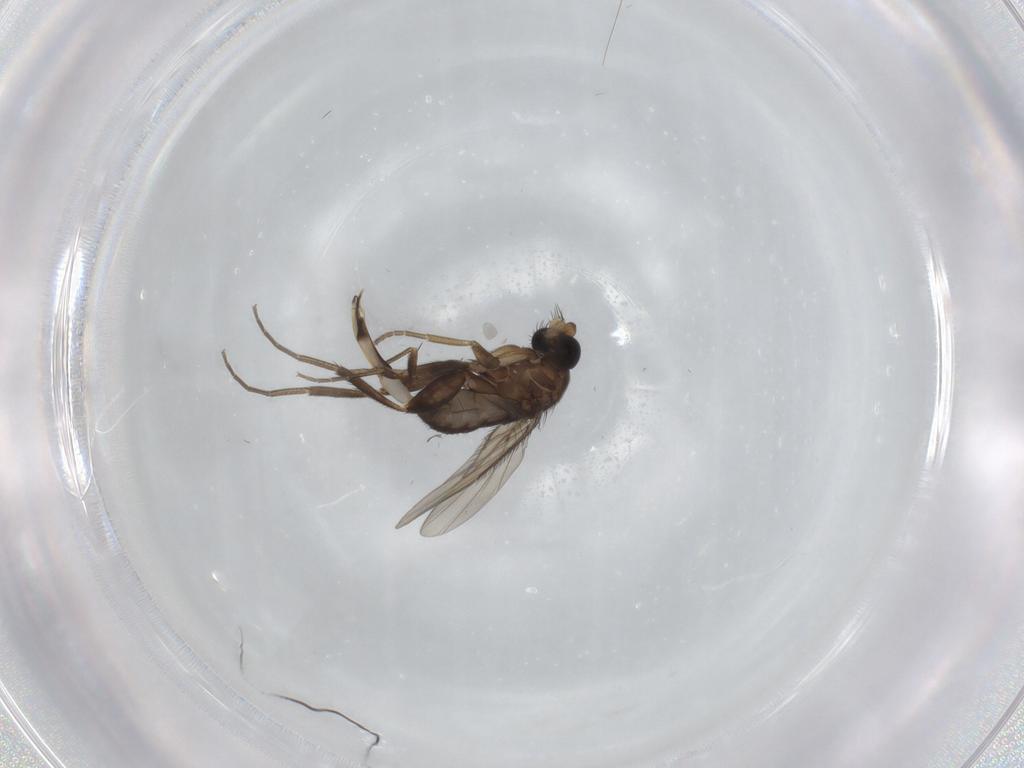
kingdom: Animalia
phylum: Arthropoda
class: Insecta
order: Diptera
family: Phoridae
